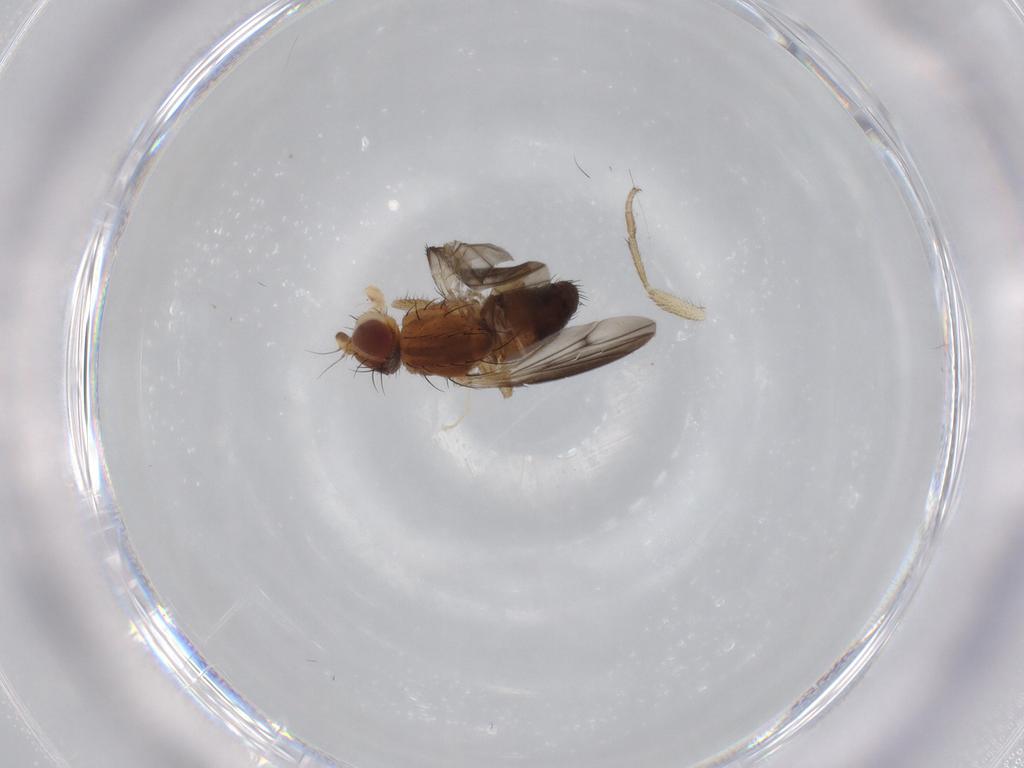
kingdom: Animalia
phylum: Arthropoda
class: Insecta
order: Diptera
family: Heleomyzidae
